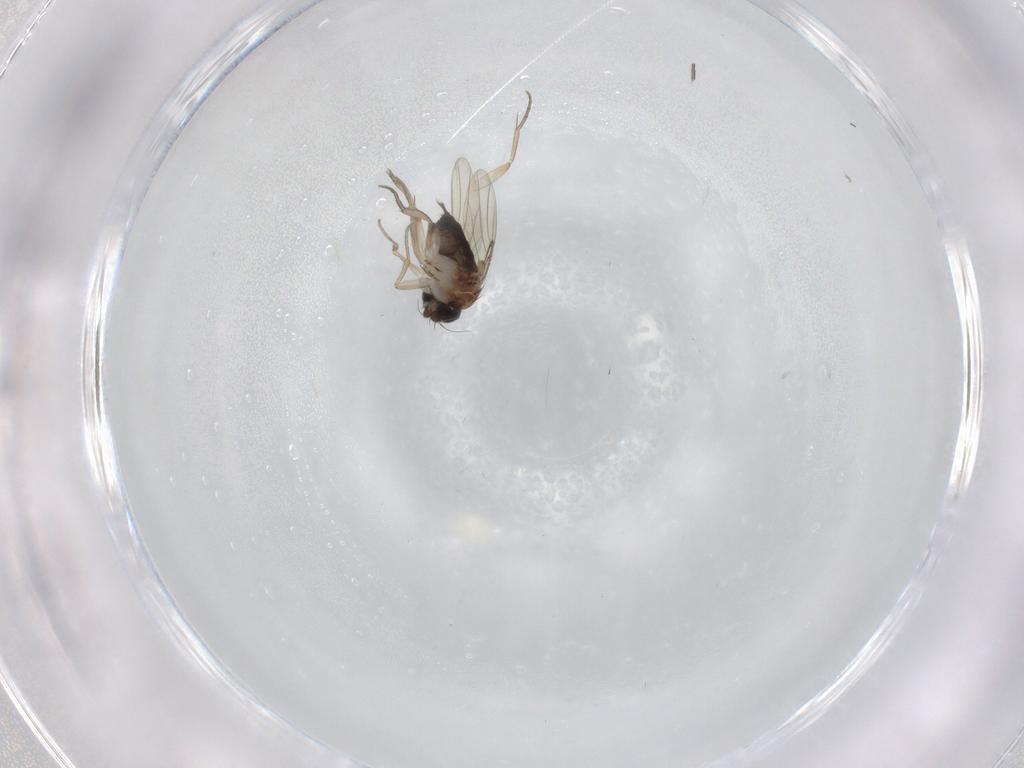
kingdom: Animalia
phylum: Arthropoda
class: Insecta
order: Diptera
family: Phoridae
